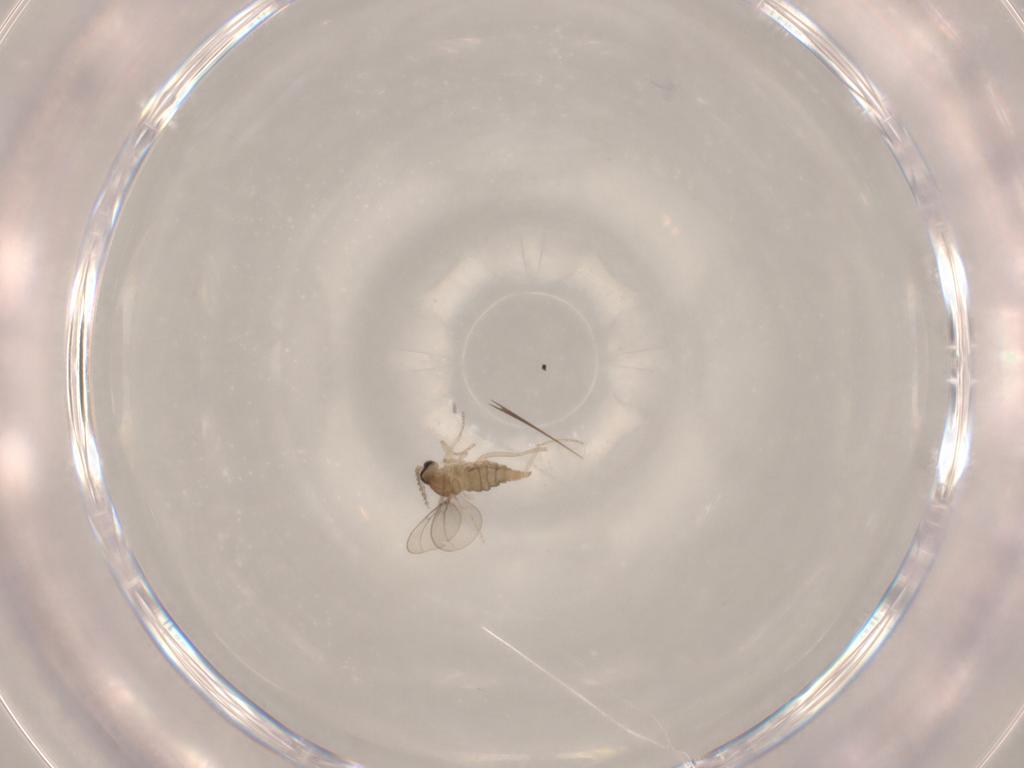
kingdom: Animalia
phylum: Arthropoda
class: Insecta
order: Diptera
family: Cecidomyiidae
